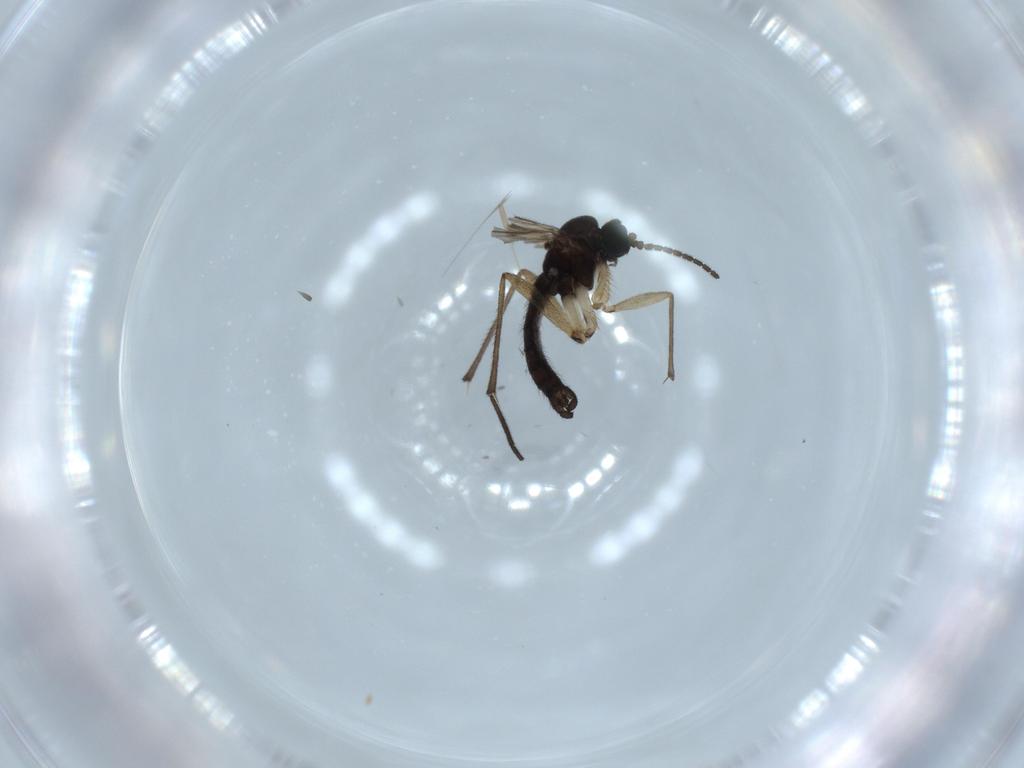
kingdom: Animalia
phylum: Arthropoda
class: Insecta
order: Diptera
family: Sciaridae
